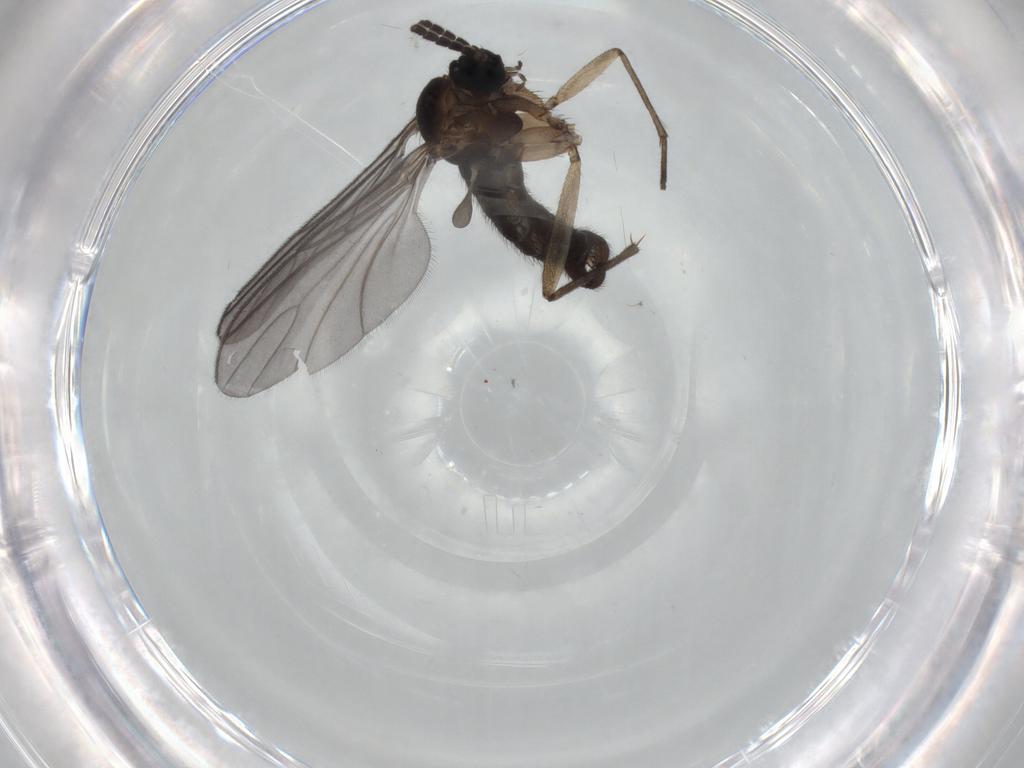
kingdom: Animalia
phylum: Arthropoda
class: Insecta
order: Diptera
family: Sciaridae
